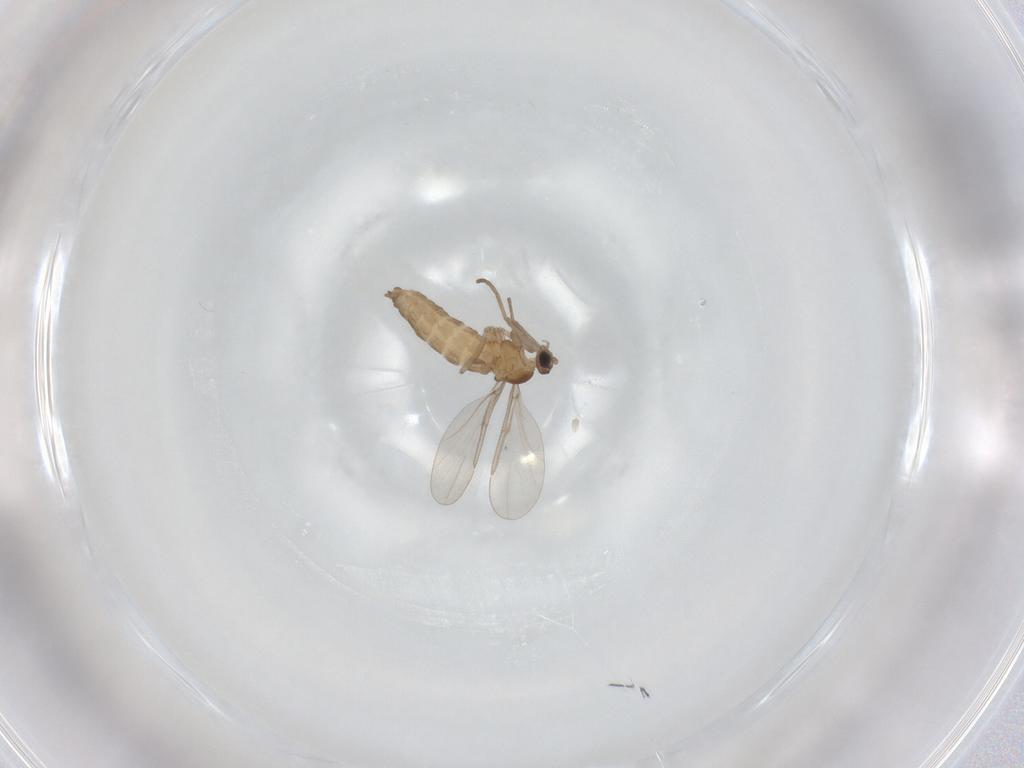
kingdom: Animalia
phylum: Arthropoda
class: Insecta
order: Diptera
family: Cecidomyiidae
